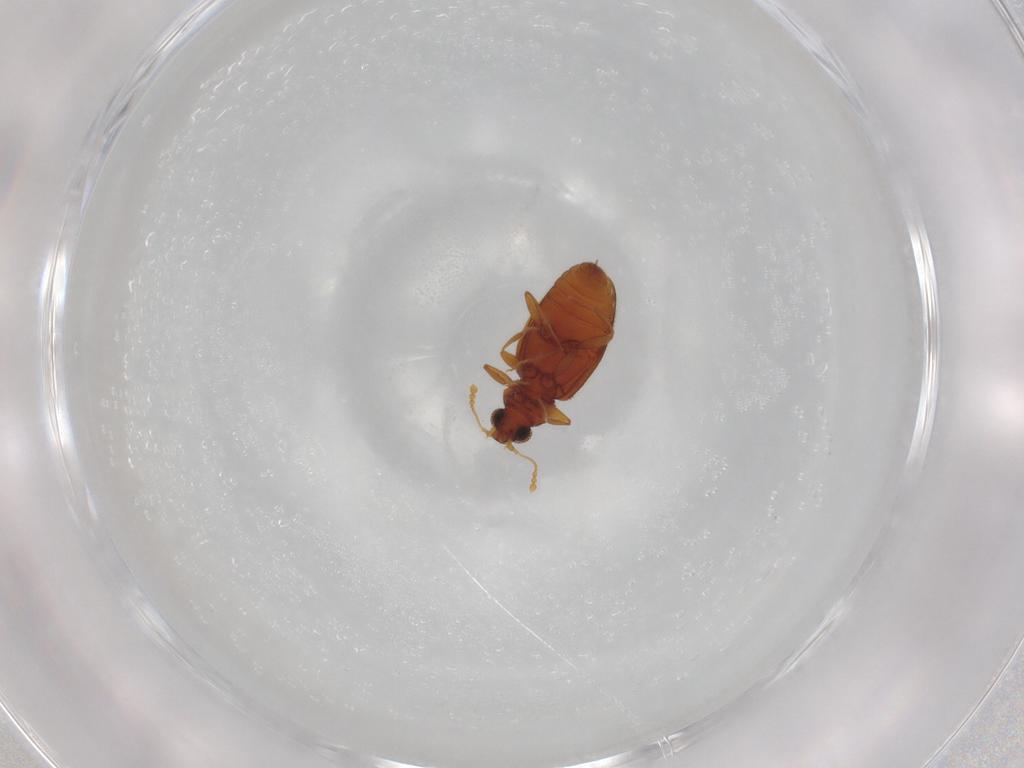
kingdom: Animalia
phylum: Arthropoda
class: Insecta
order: Coleoptera
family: Latridiidae
